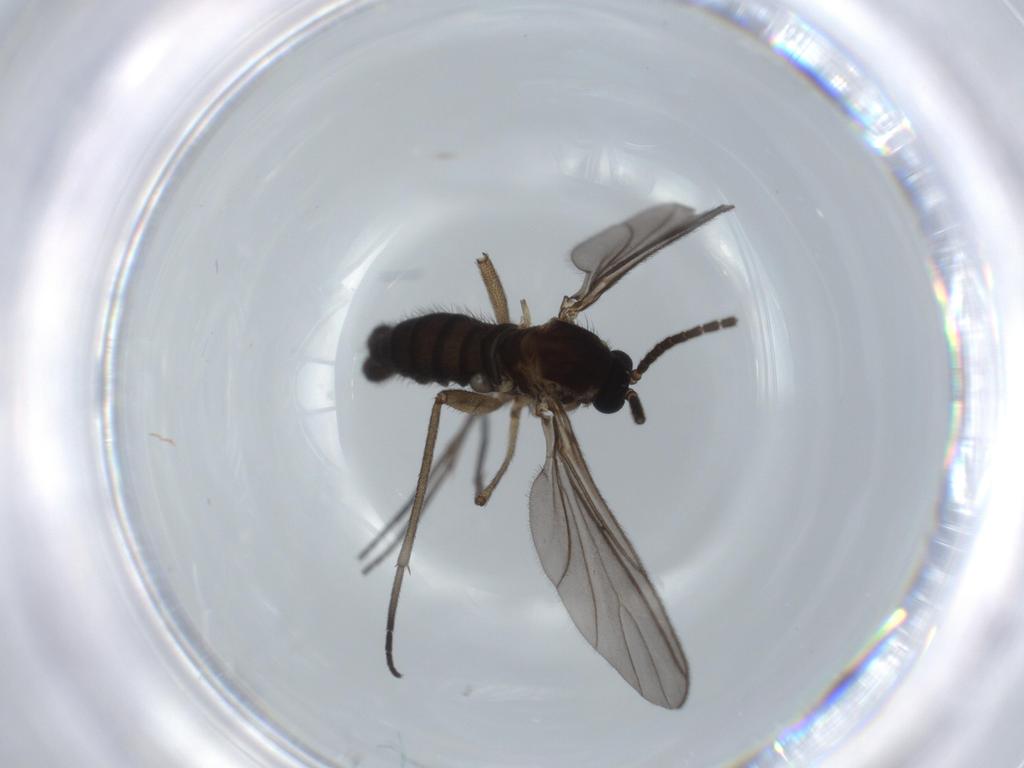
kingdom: Animalia
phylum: Arthropoda
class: Insecta
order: Diptera
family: Sciaridae
